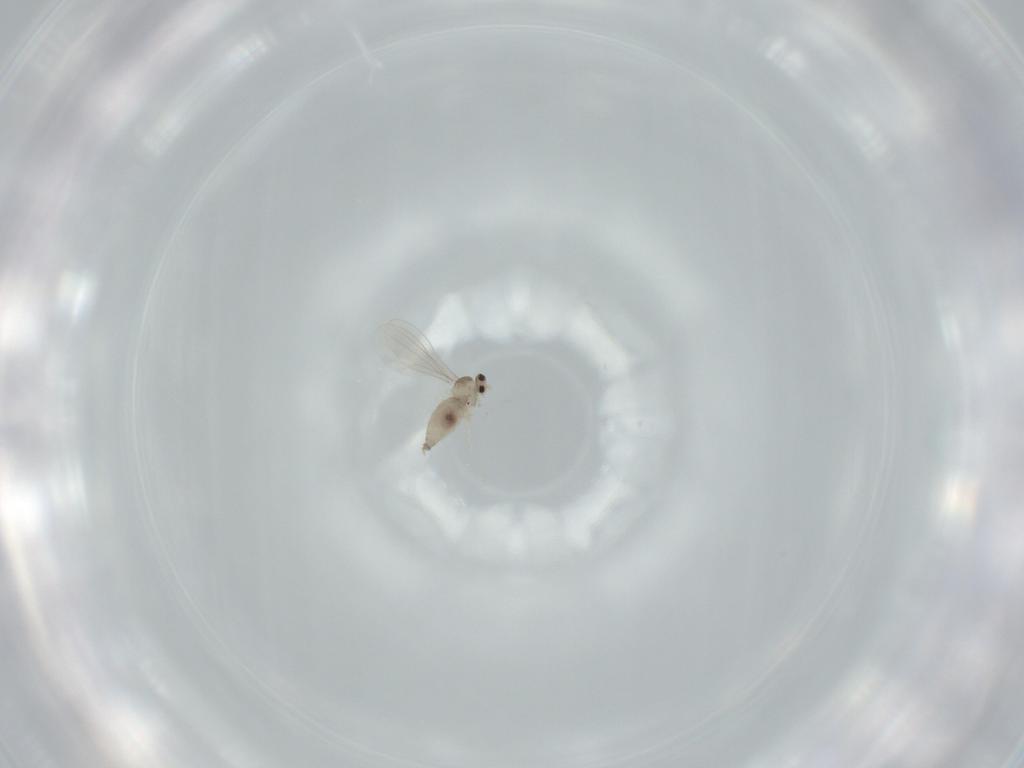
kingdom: Animalia
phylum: Arthropoda
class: Insecta
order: Diptera
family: Cecidomyiidae
